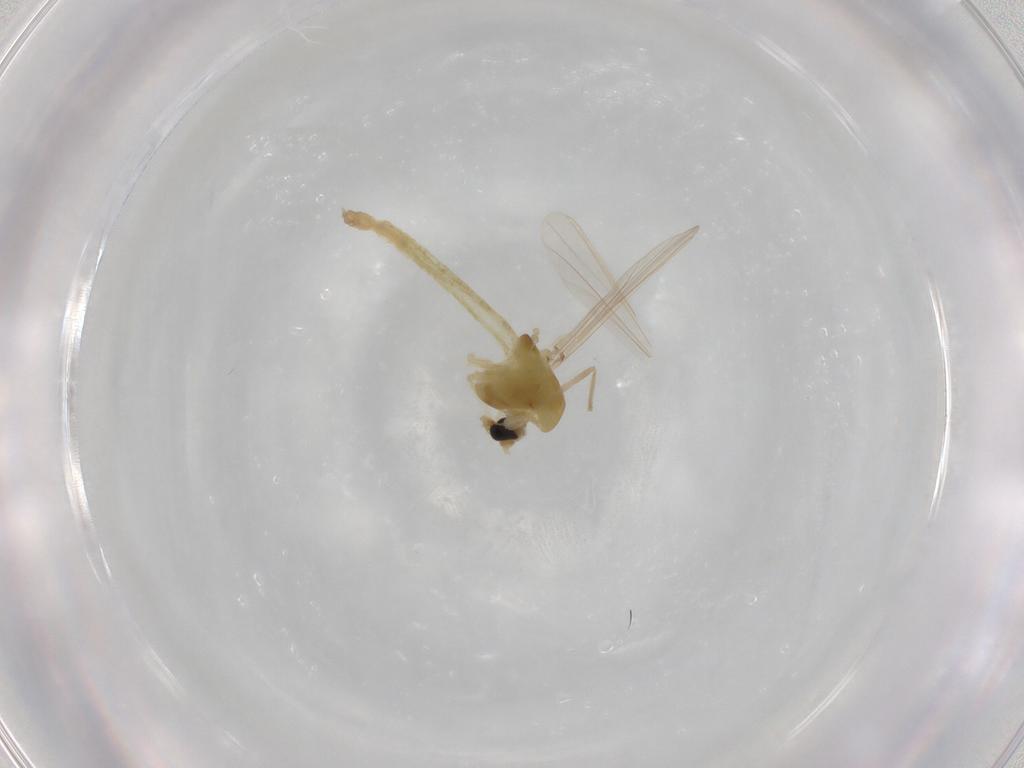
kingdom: Animalia
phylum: Arthropoda
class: Insecta
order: Diptera
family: Chironomidae
